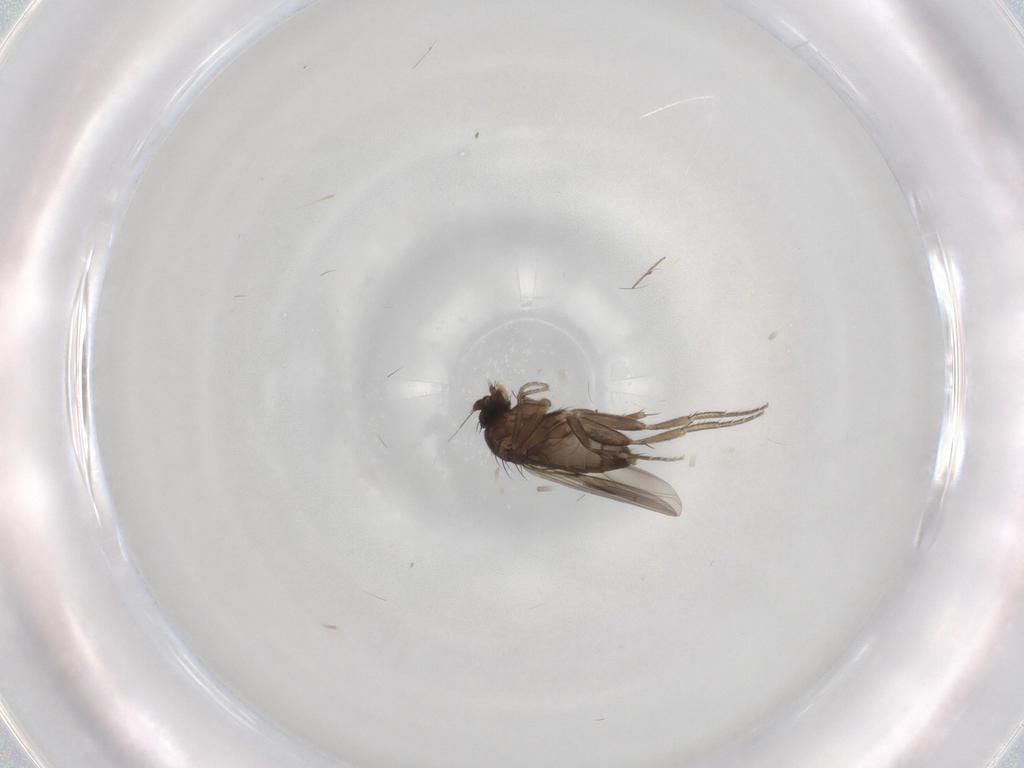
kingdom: Animalia
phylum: Arthropoda
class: Insecta
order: Diptera
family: Phoridae
